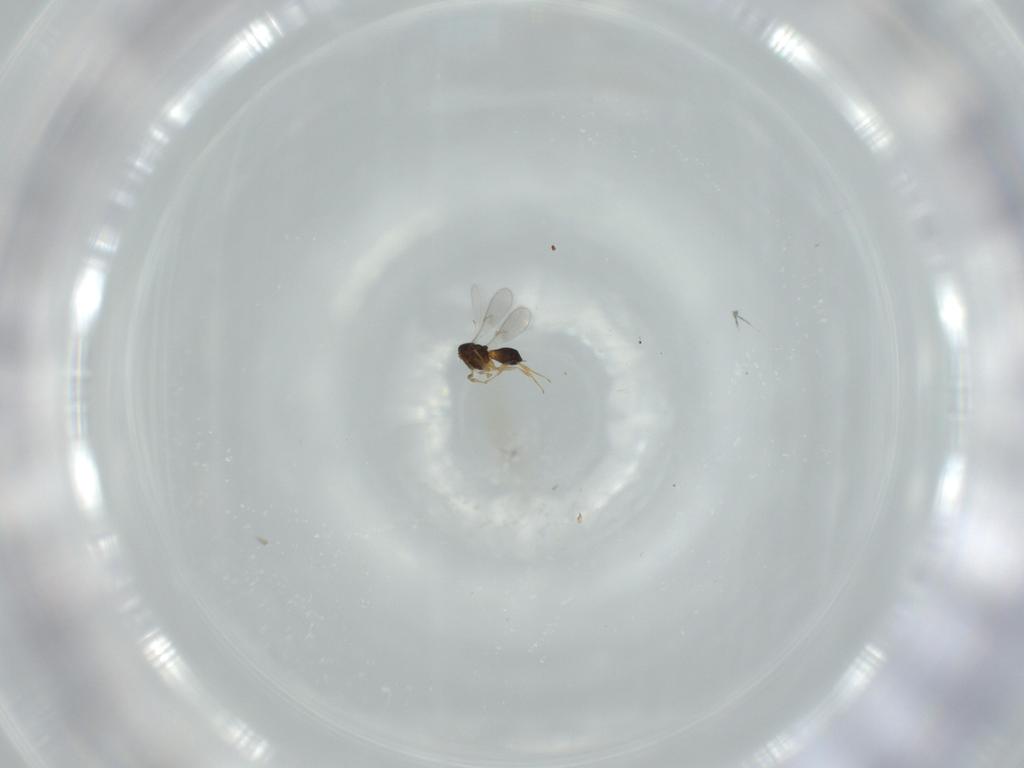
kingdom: Animalia
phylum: Arthropoda
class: Insecta
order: Hymenoptera
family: Scelionidae
